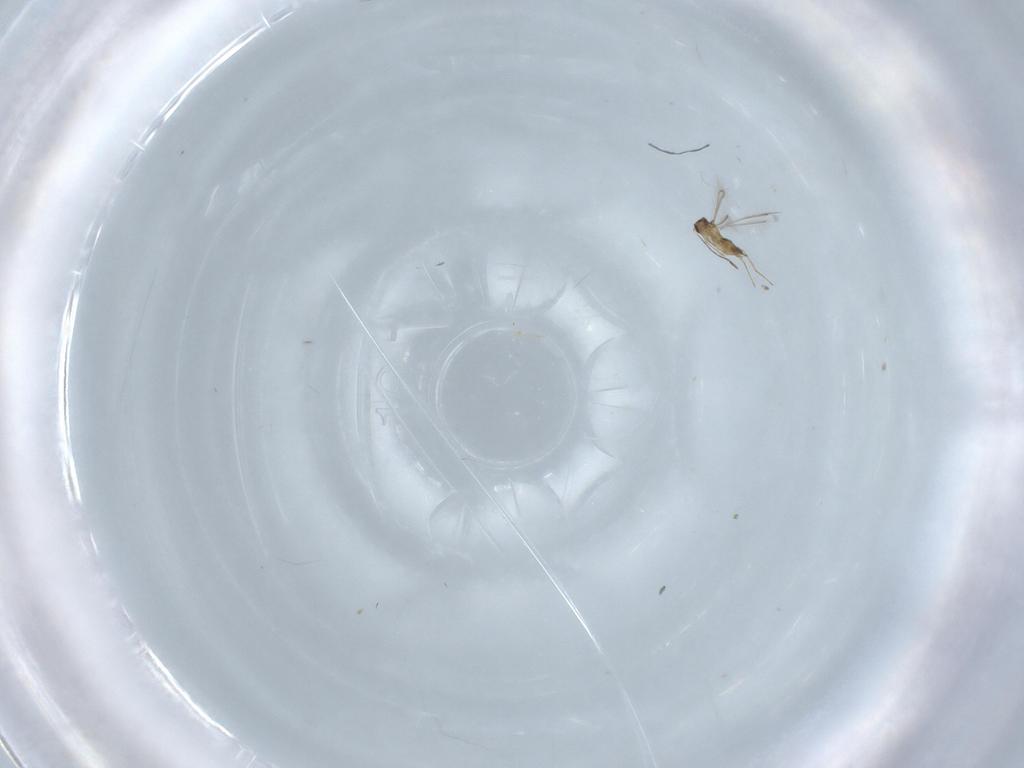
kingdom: Animalia
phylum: Arthropoda
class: Insecta
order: Hymenoptera
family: Mymaridae
